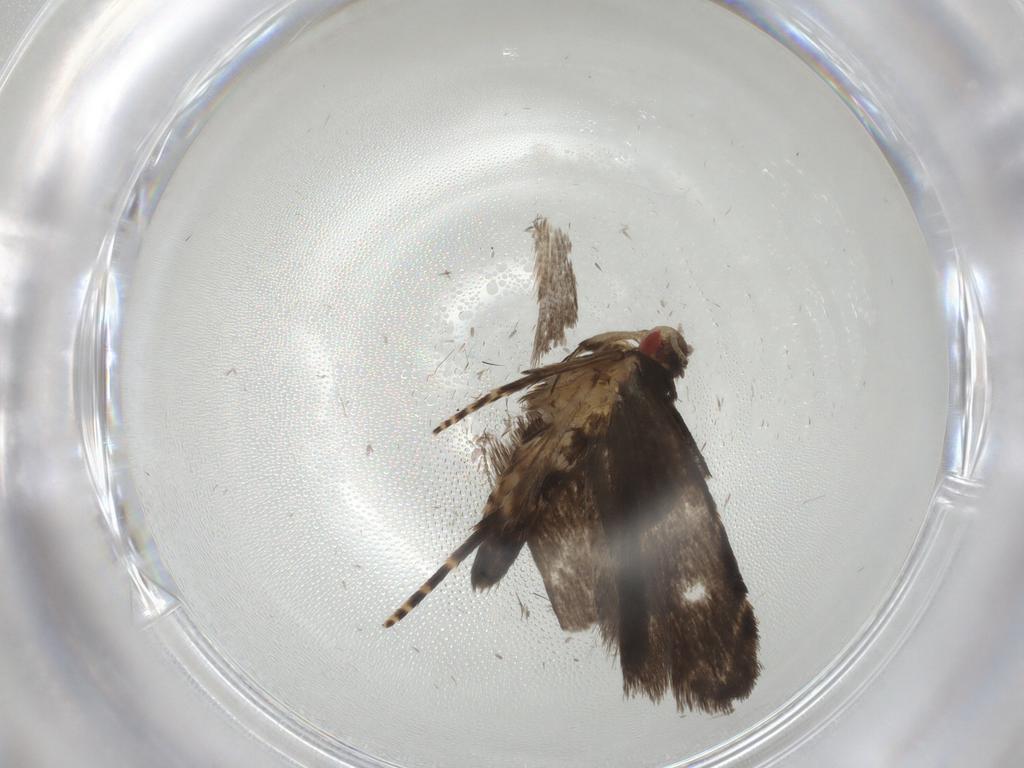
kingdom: Animalia
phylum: Arthropoda
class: Insecta
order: Lepidoptera
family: Gelechiidae
